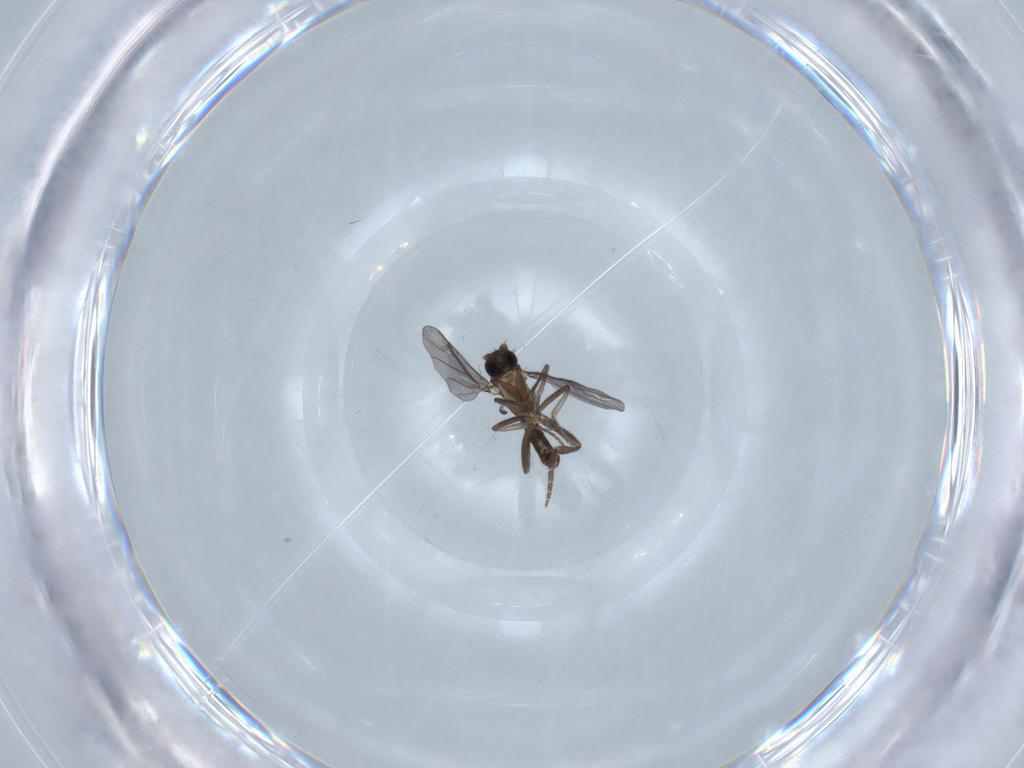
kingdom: Animalia
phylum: Arthropoda
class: Insecta
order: Diptera
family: Phoridae
